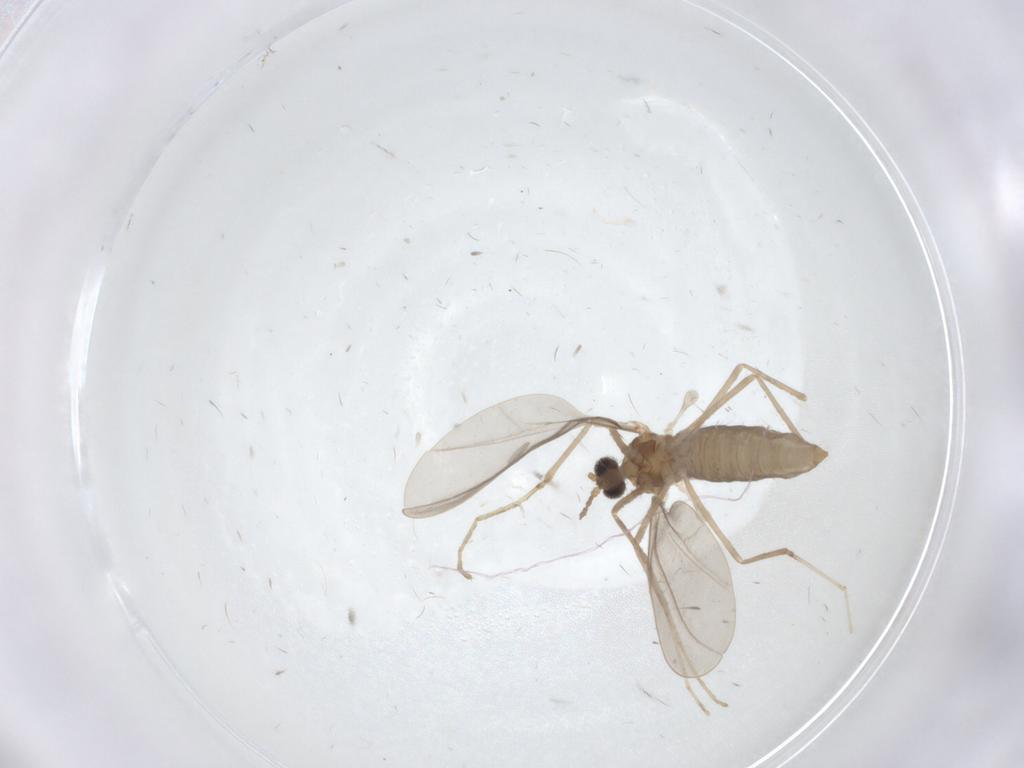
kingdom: Animalia
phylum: Arthropoda
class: Insecta
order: Diptera
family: Cecidomyiidae
